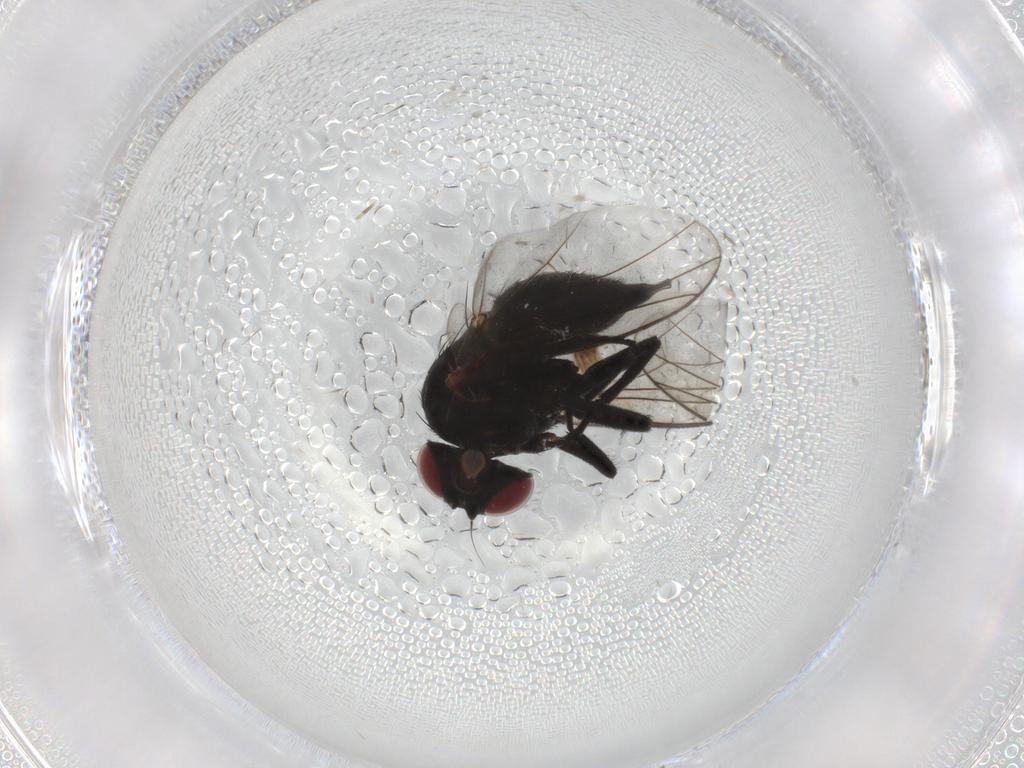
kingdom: Animalia
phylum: Arthropoda
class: Insecta
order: Diptera
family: Agromyzidae
